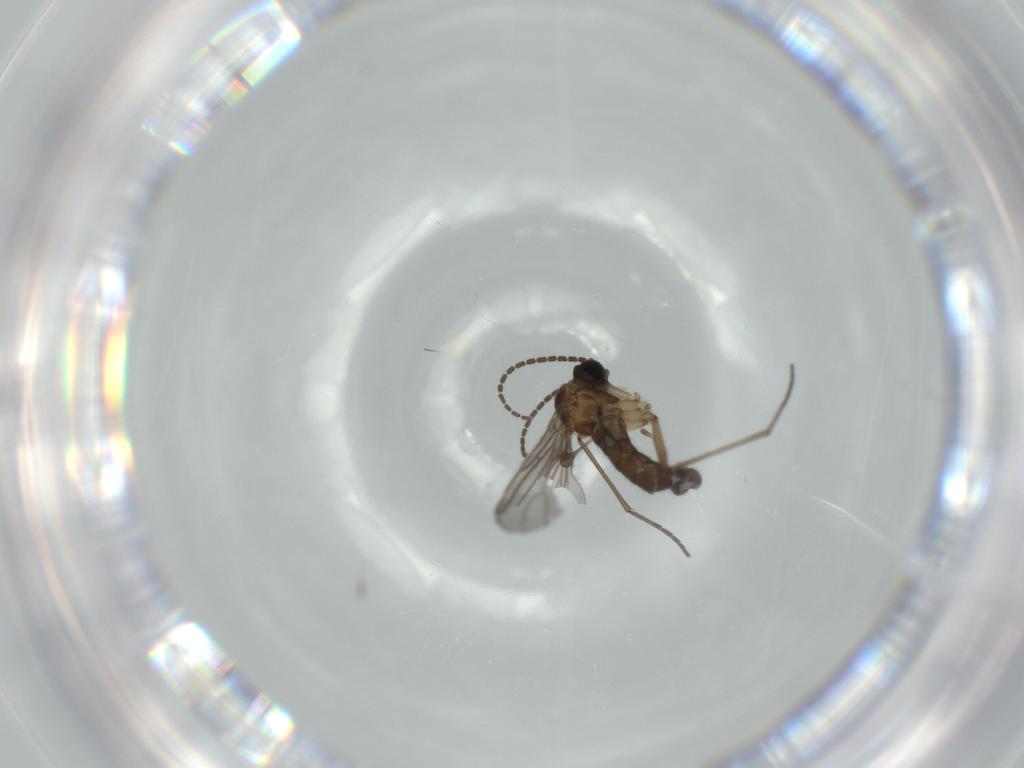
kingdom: Animalia
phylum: Arthropoda
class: Insecta
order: Diptera
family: Sciaridae
